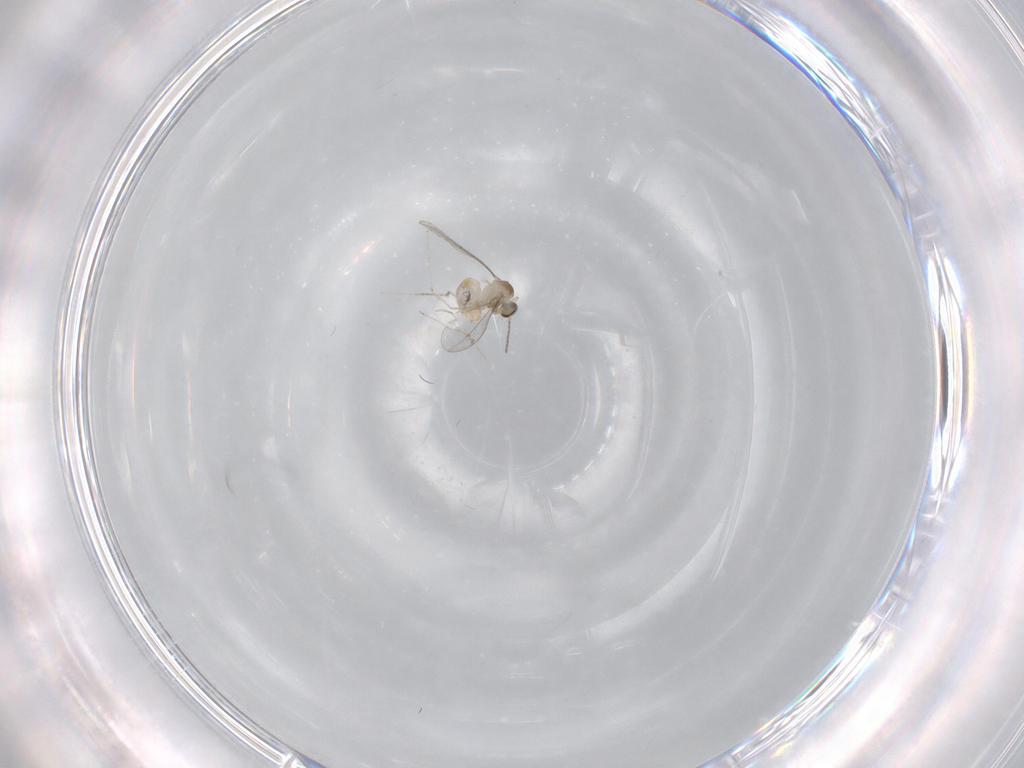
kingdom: Animalia
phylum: Arthropoda
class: Insecta
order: Diptera
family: Cecidomyiidae
